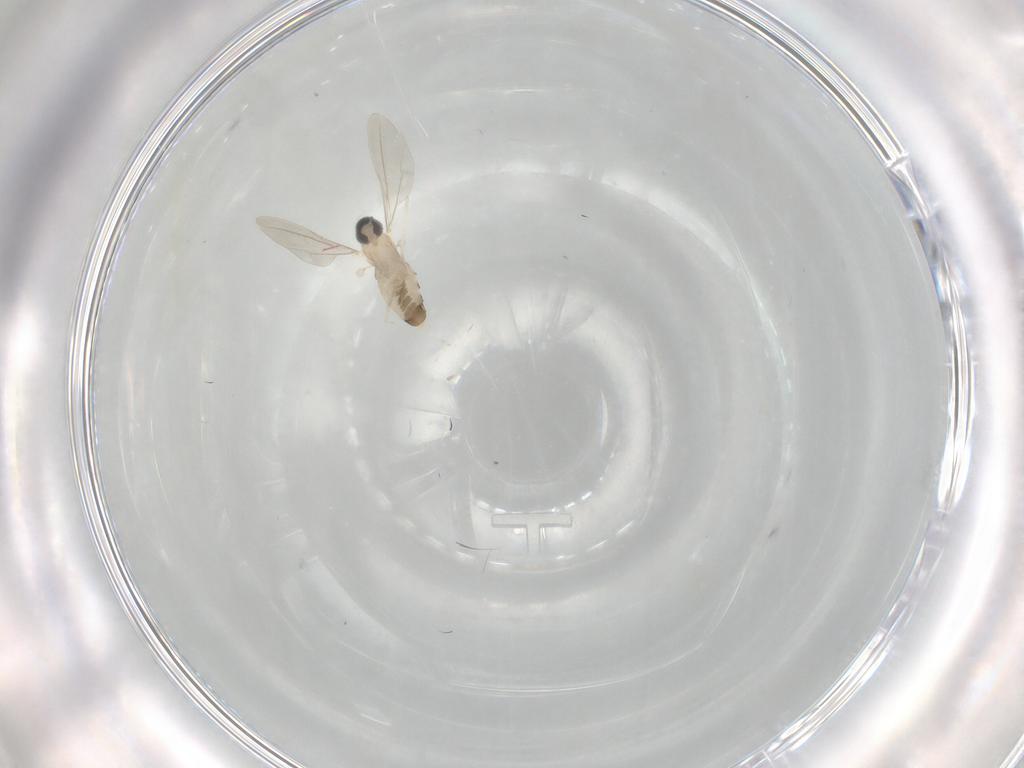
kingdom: Animalia
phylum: Arthropoda
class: Insecta
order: Diptera
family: Cecidomyiidae
